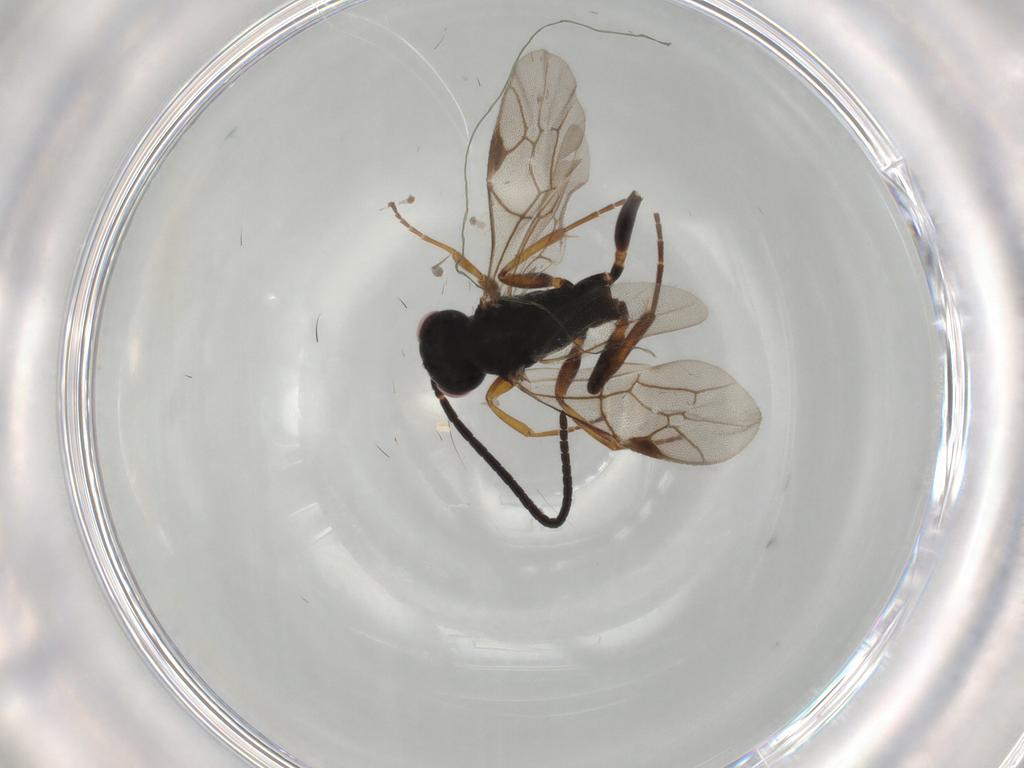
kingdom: Animalia
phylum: Arthropoda
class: Insecta
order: Hymenoptera
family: Ichneumonidae
